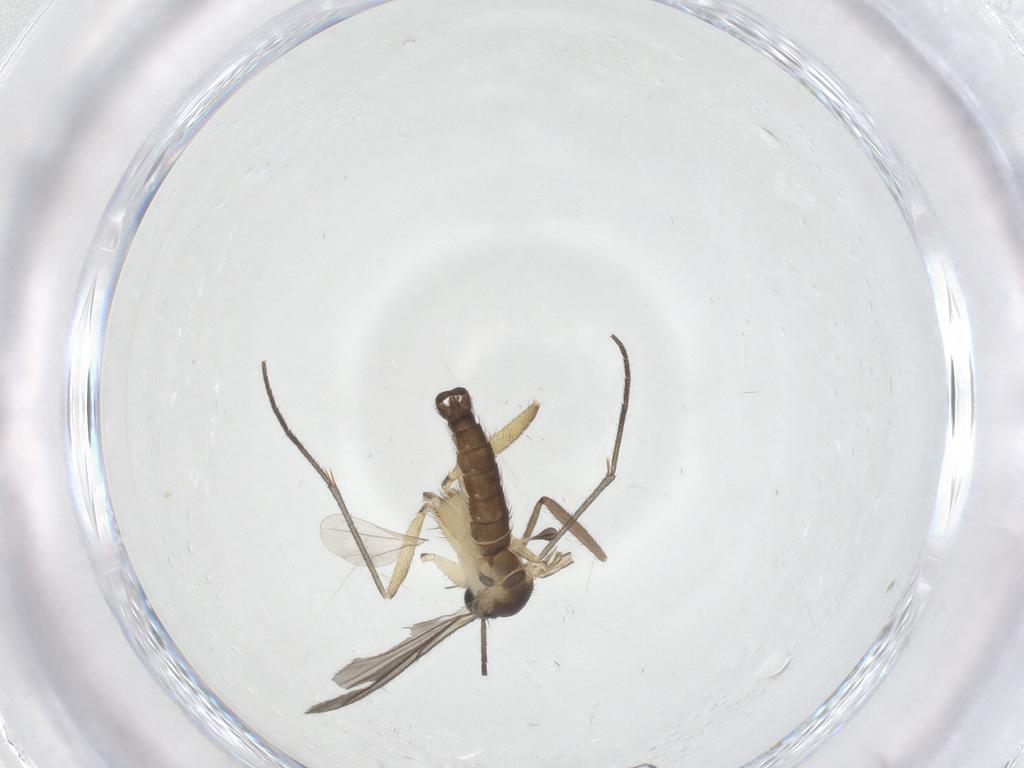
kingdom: Animalia
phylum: Arthropoda
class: Insecta
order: Diptera
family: Sciaridae
